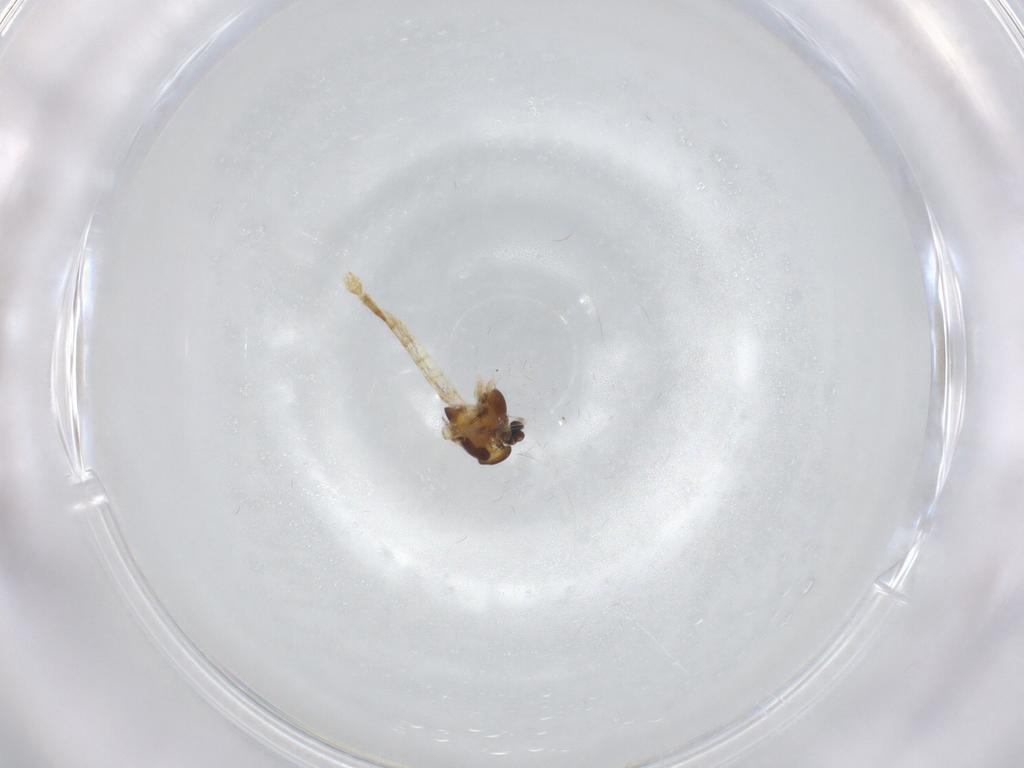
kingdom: Animalia
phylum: Arthropoda
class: Insecta
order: Diptera
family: Chironomidae
